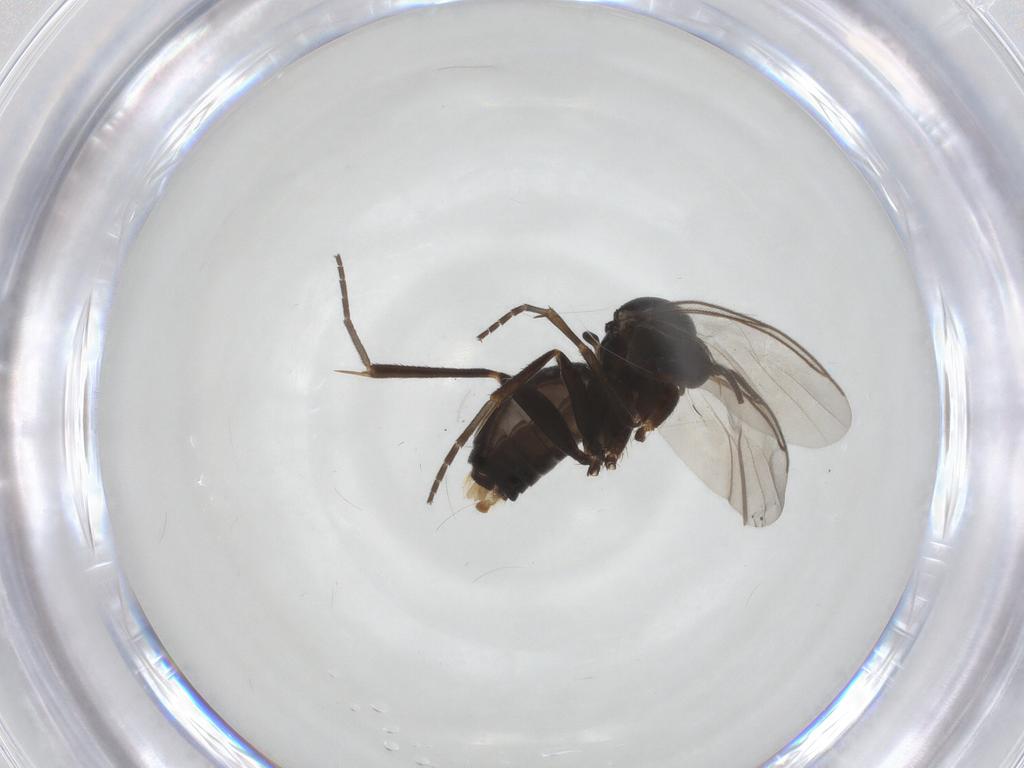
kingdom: Animalia
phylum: Arthropoda
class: Insecta
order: Diptera
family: Mycetophilidae
